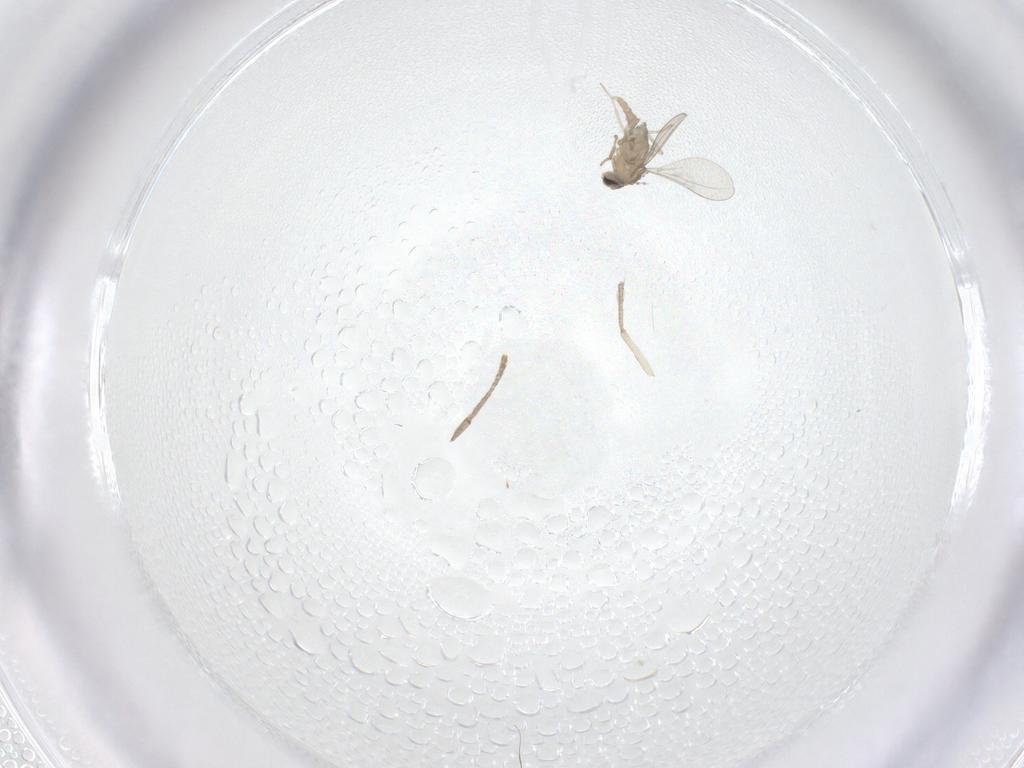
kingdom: Animalia
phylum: Arthropoda
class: Insecta
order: Diptera
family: Cecidomyiidae
